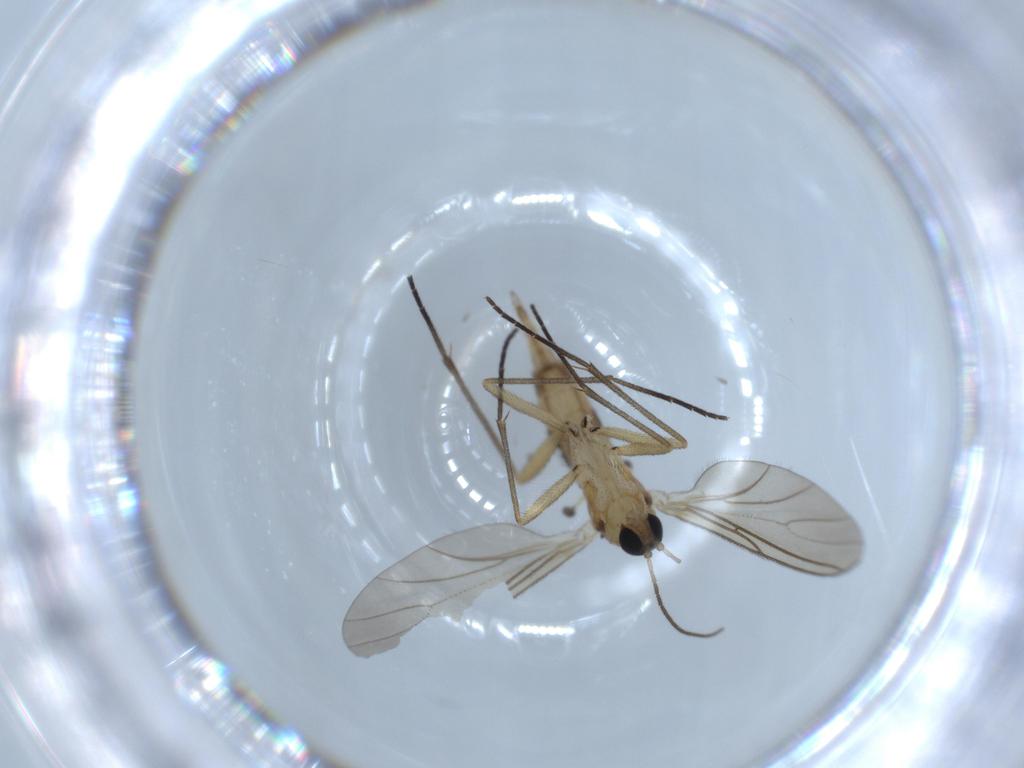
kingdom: Animalia
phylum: Arthropoda
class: Insecta
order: Diptera
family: Sciaridae
